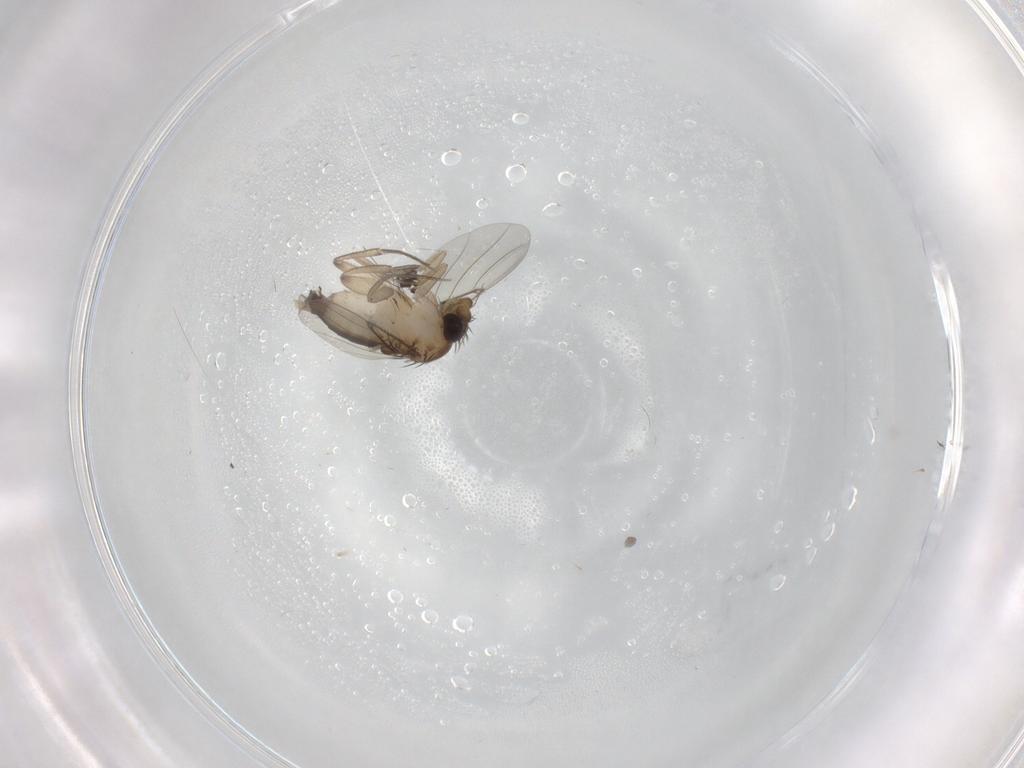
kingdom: Animalia
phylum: Arthropoda
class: Insecta
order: Diptera
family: Phoridae
